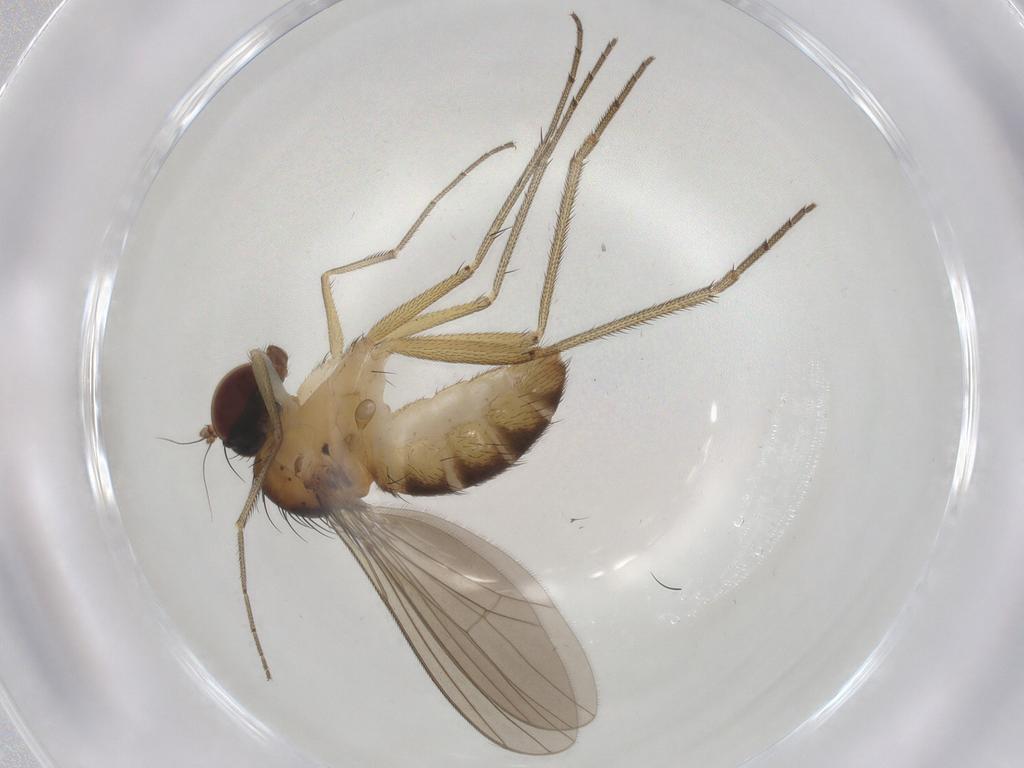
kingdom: Animalia
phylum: Arthropoda
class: Insecta
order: Diptera
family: Dolichopodidae
